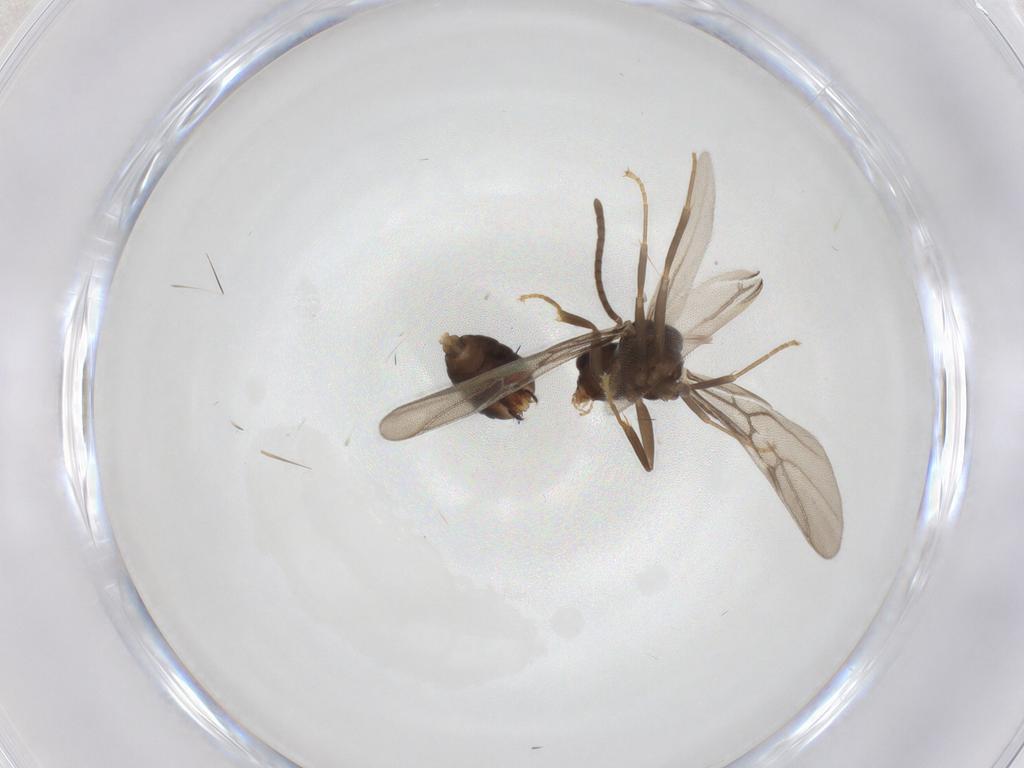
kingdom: Animalia
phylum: Arthropoda
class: Insecta
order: Hymenoptera
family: Formicidae
